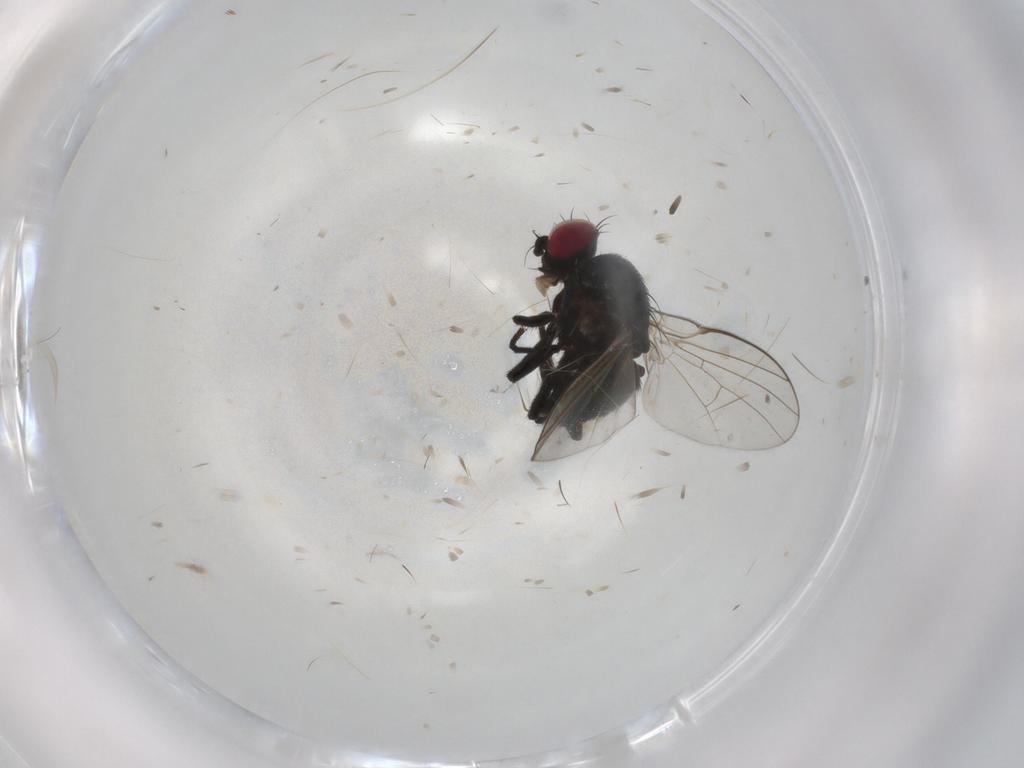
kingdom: Animalia
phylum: Arthropoda
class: Insecta
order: Diptera
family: Agromyzidae
